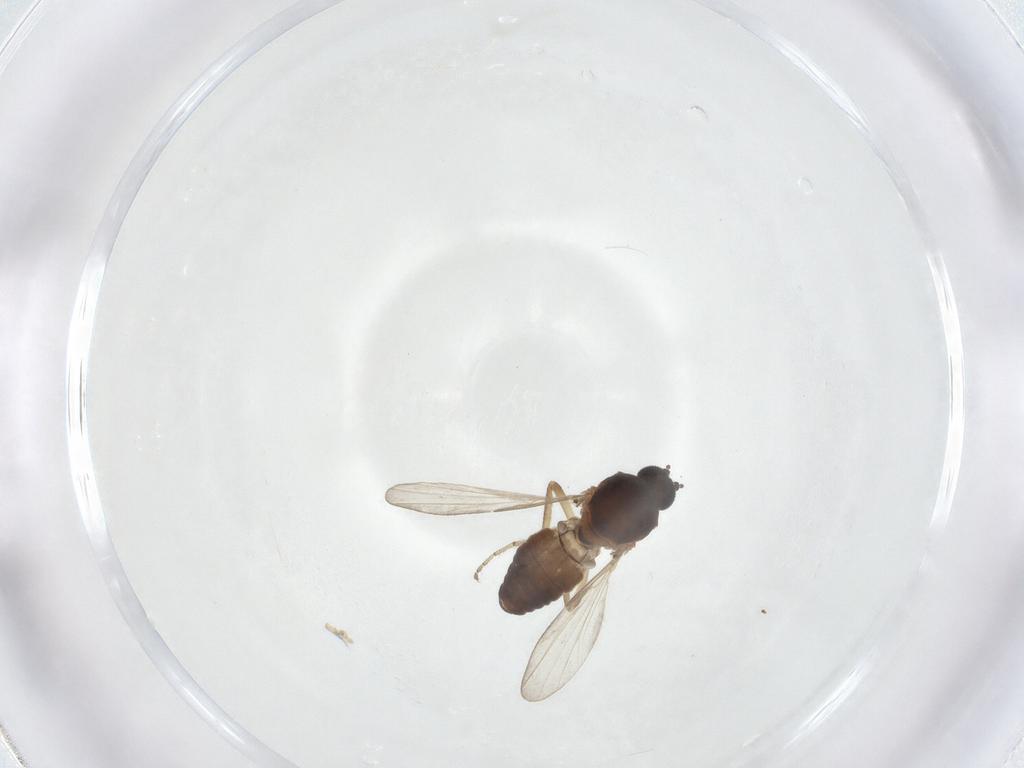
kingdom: Animalia
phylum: Arthropoda
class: Insecta
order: Diptera
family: Ceratopogonidae
